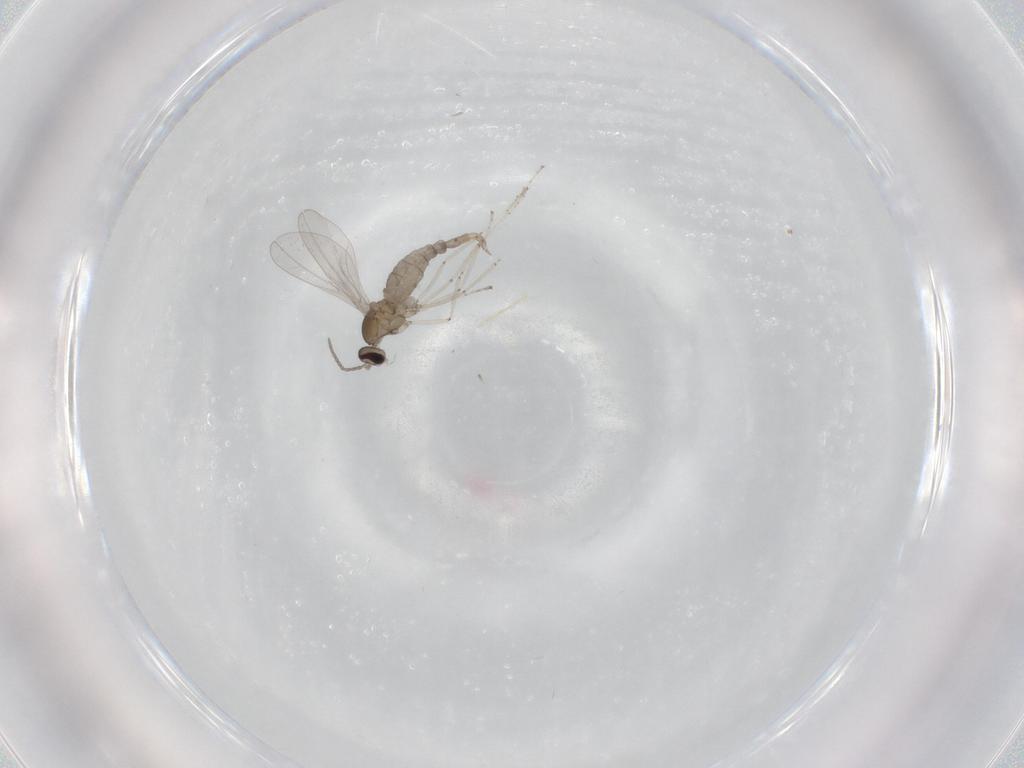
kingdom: Animalia
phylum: Arthropoda
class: Insecta
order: Diptera
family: Cecidomyiidae
